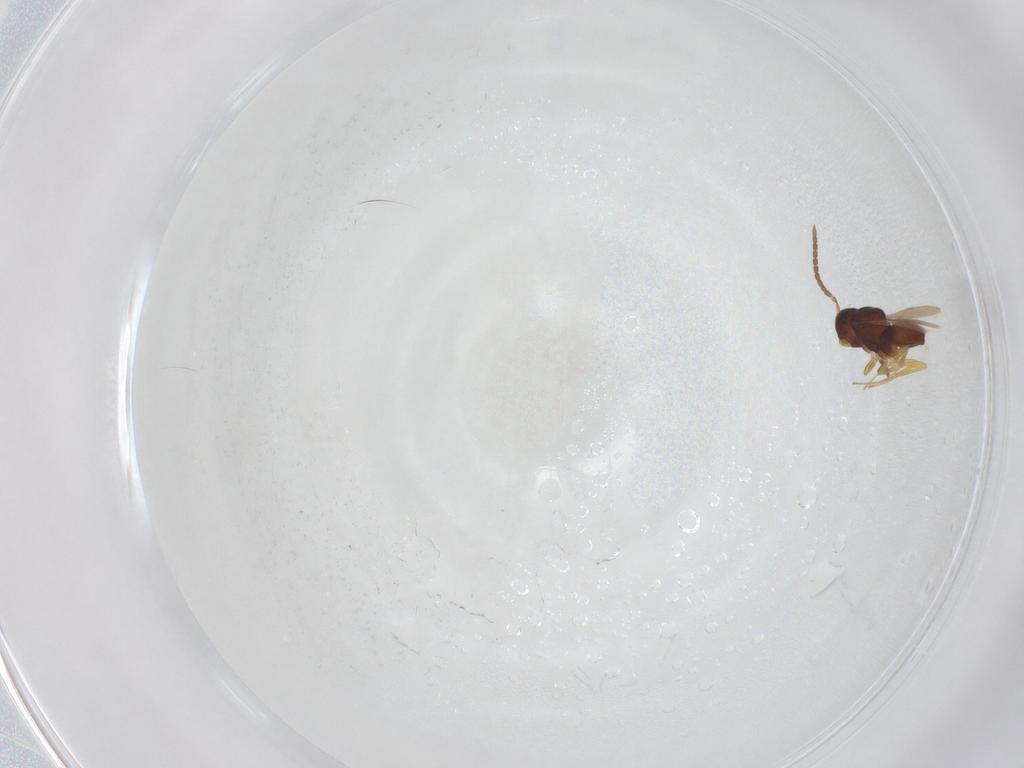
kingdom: Animalia
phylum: Arthropoda
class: Insecta
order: Hymenoptera
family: Scelionidae
